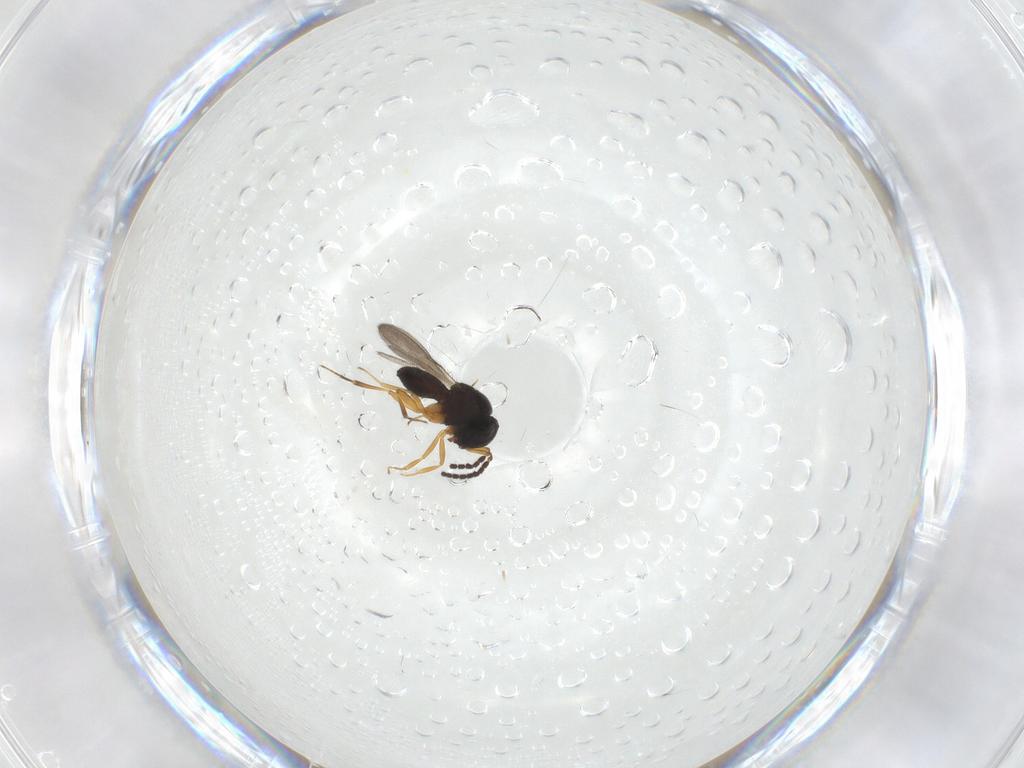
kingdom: Animalia
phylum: Arthropoda
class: Insecta
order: Hymenoptera
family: Scelionidae
